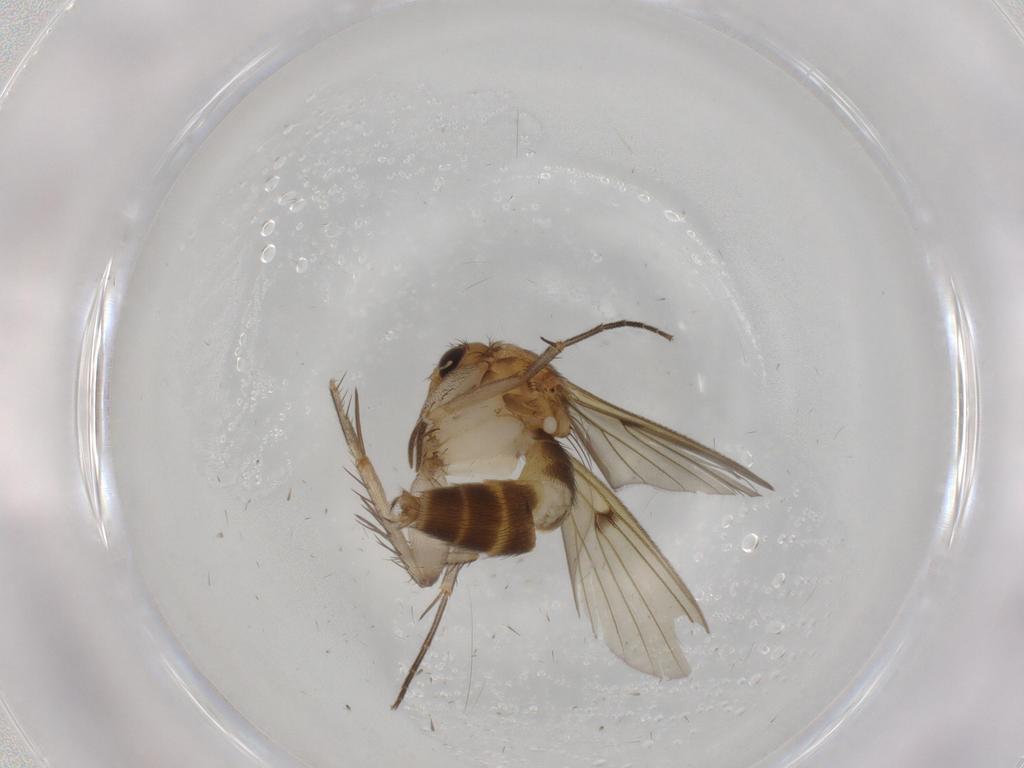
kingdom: Animalia
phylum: Arthropoda
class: Insecta
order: Diptera
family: Mycetophilidae
